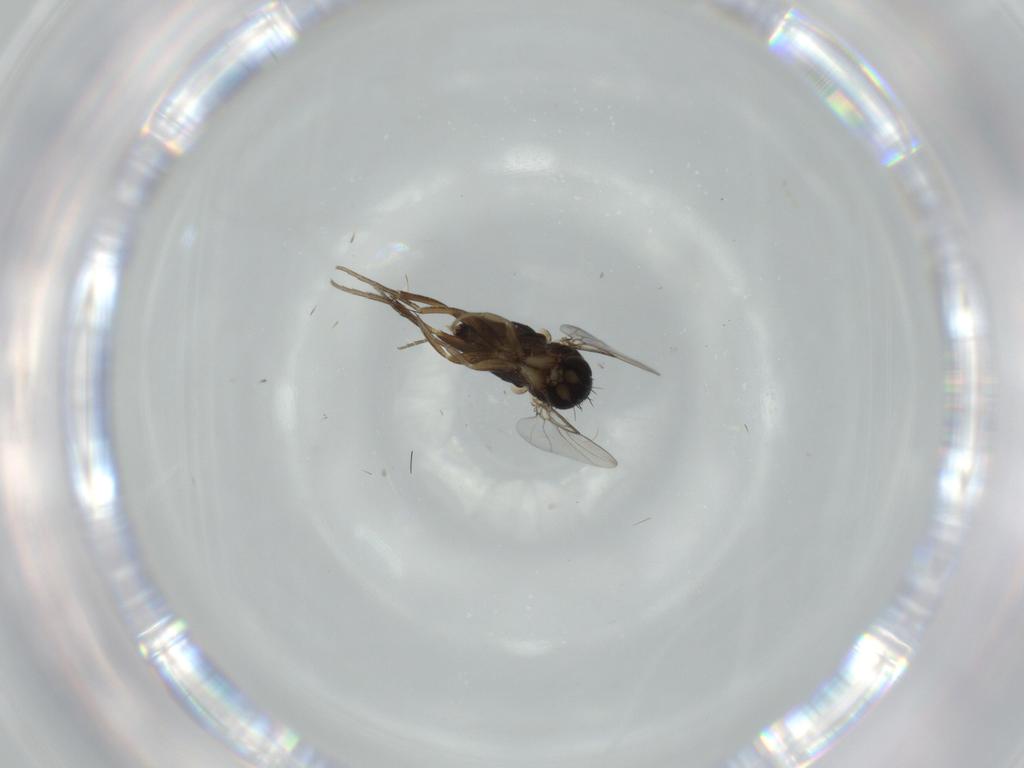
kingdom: Animalia
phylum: Arthropoda
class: Insecta
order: Diptera
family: Phoridae
